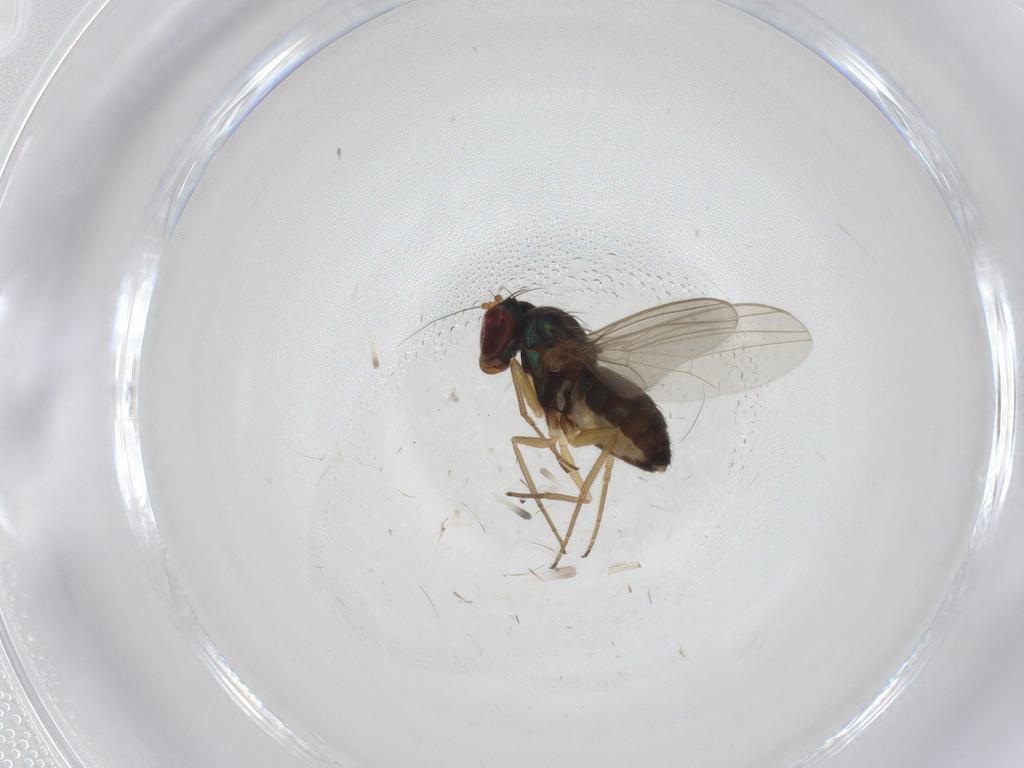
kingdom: Animalia
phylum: Arthropoda
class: Insecta
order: Diptera
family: Dolichopodidae
